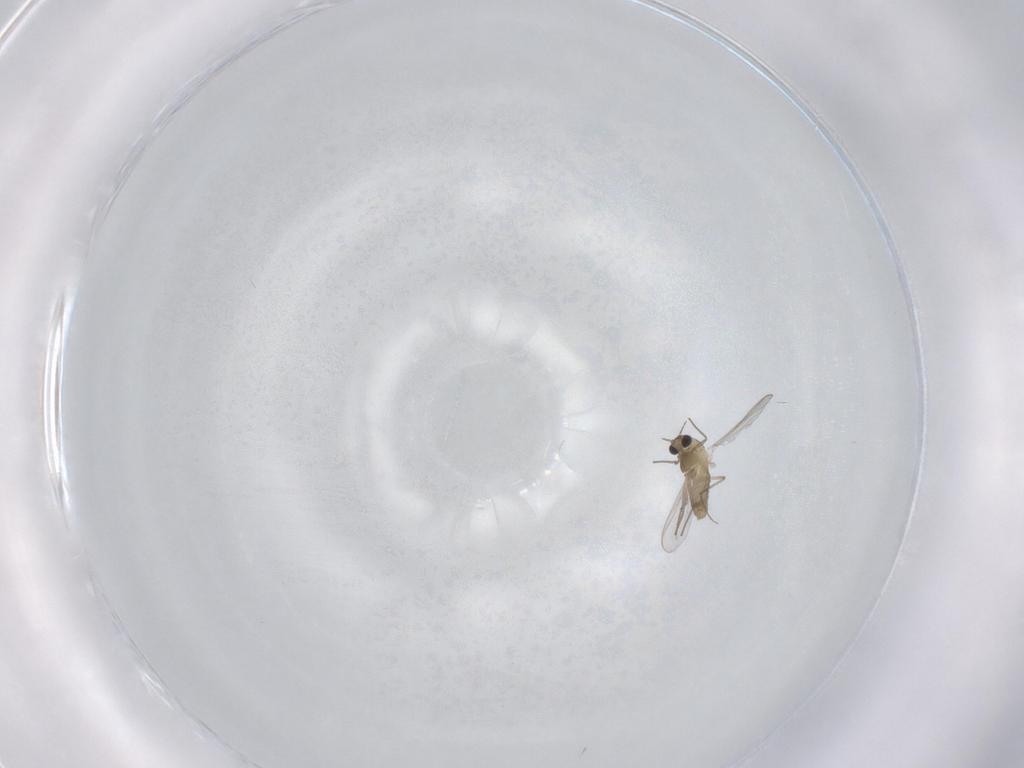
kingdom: Animalia
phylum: Arthropoda
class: Insecta
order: Diptera
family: Chironomidae
